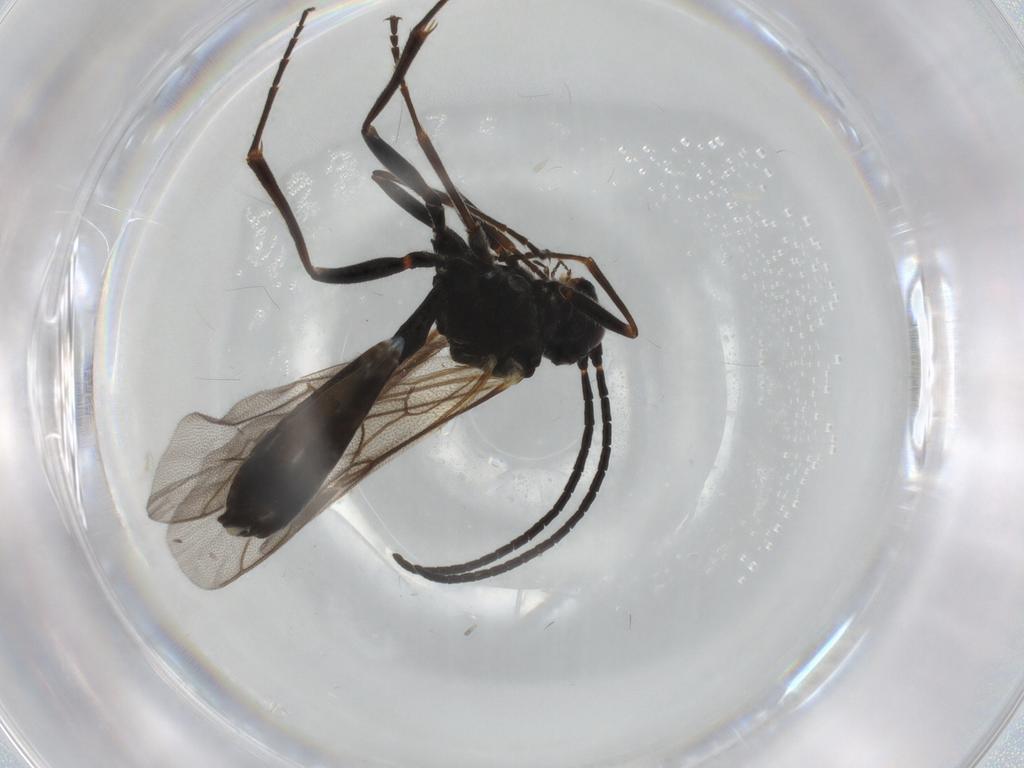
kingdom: Animalia
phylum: Arthropoda
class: Insecta
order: Hymenoptera
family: Ichneumonidae
